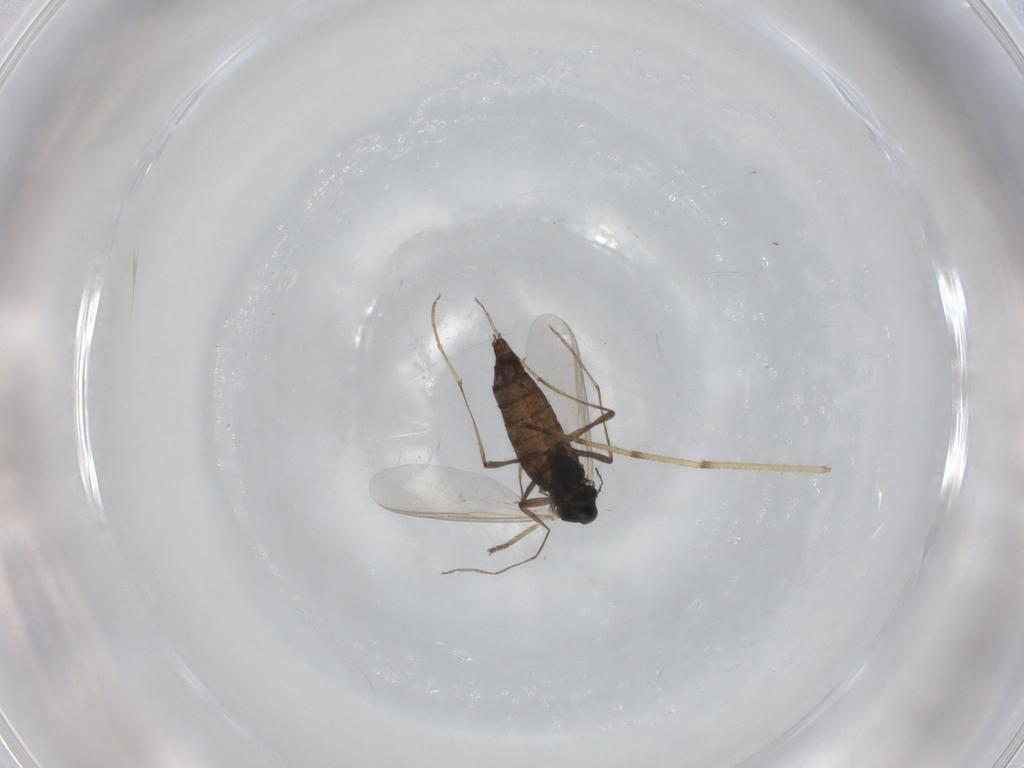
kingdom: Animalia
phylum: Arthropoda
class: Insecta
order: Diptera
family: Chironomidae
